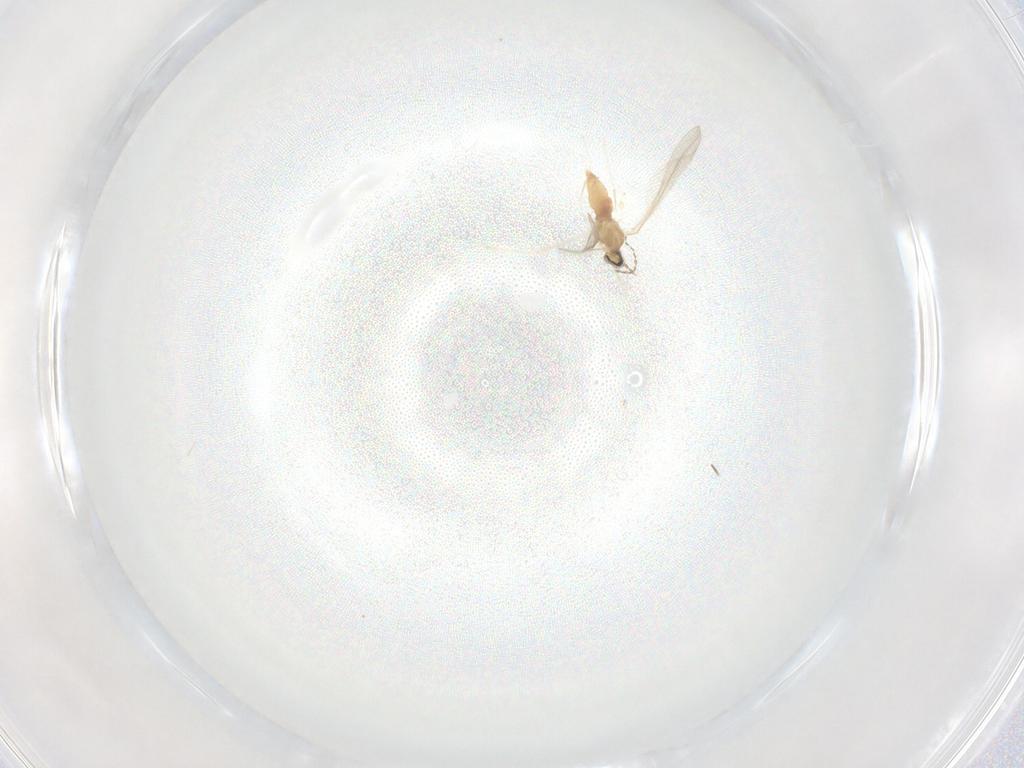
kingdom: Animalia
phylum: Arthropoda
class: Insecta
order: Diptera
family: Cecidomyiidae
